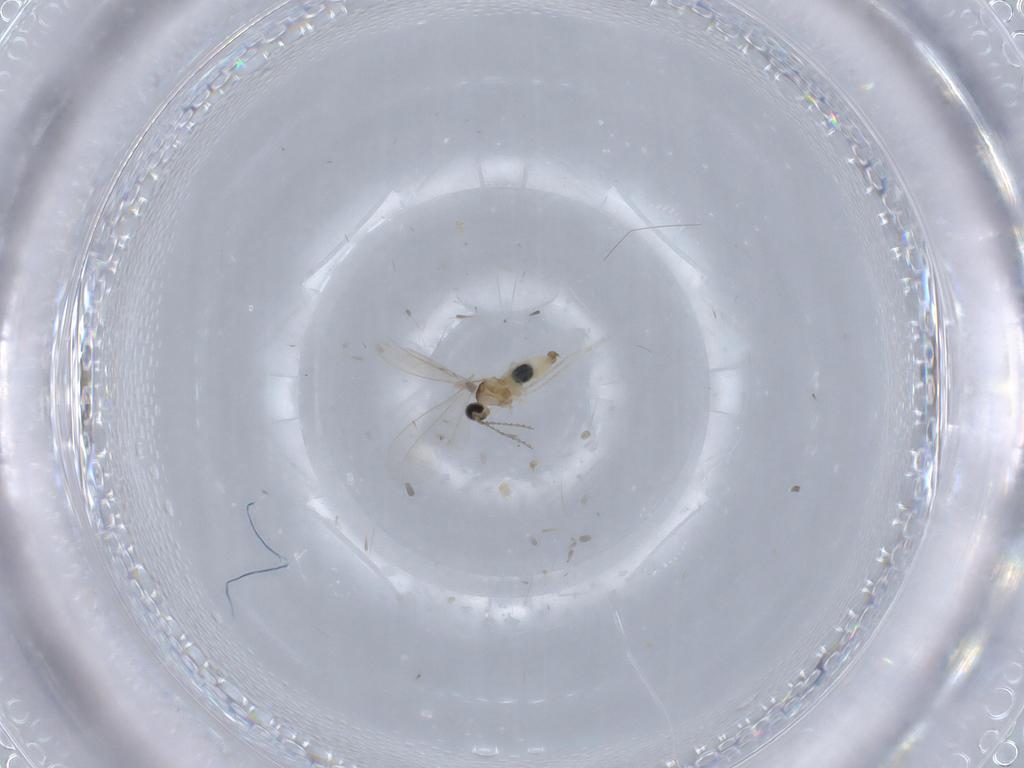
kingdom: Animalia
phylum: Arthropoda
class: Insecta
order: Diptera
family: Cecidomyiidae
